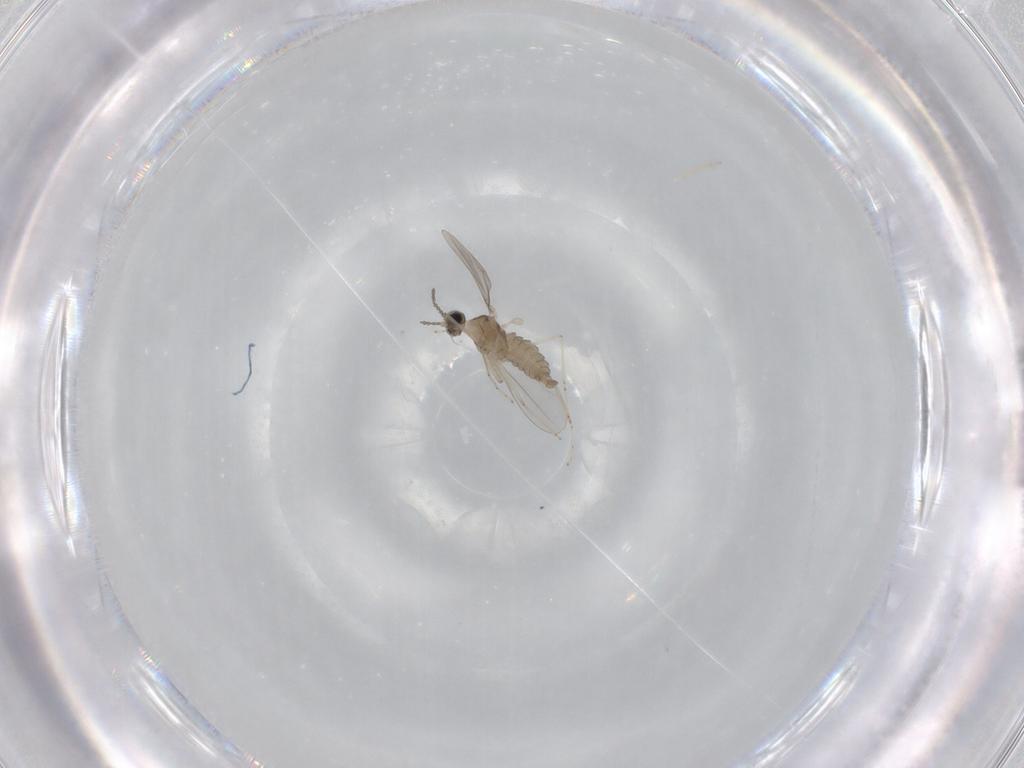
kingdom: Animalia
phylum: Arthropoda
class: Insecta
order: Diptera
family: Cecidomyiidae
